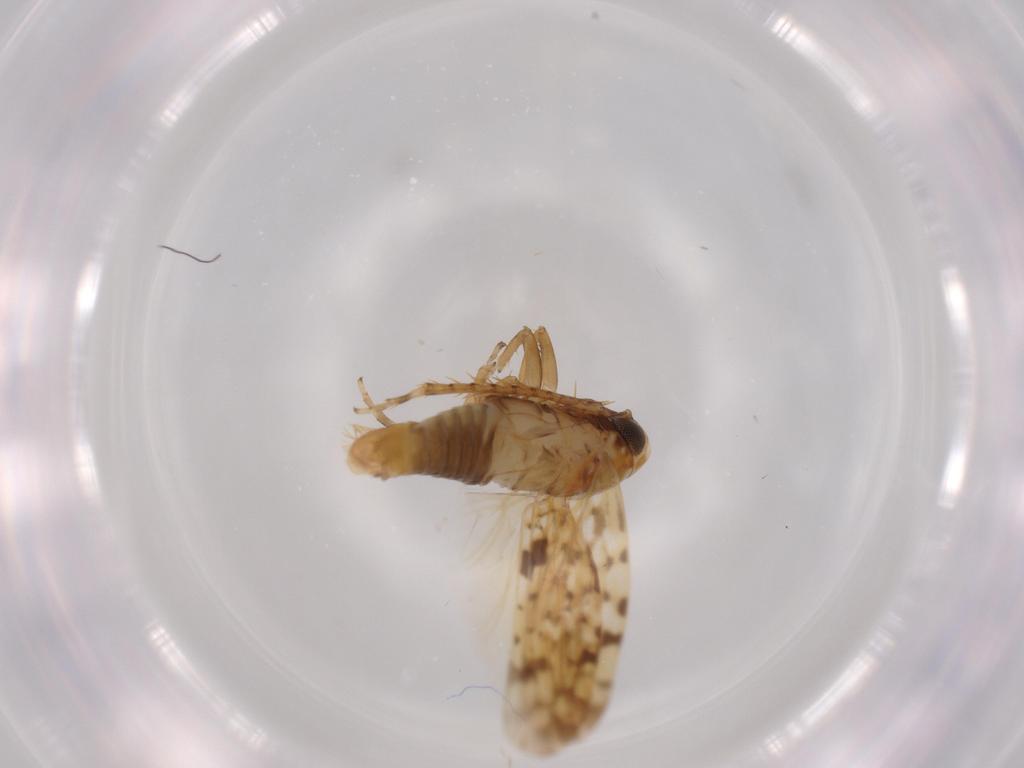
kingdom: Animalia
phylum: Arthropoda
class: Insecta
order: Hemiptera
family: Cicadellidae
